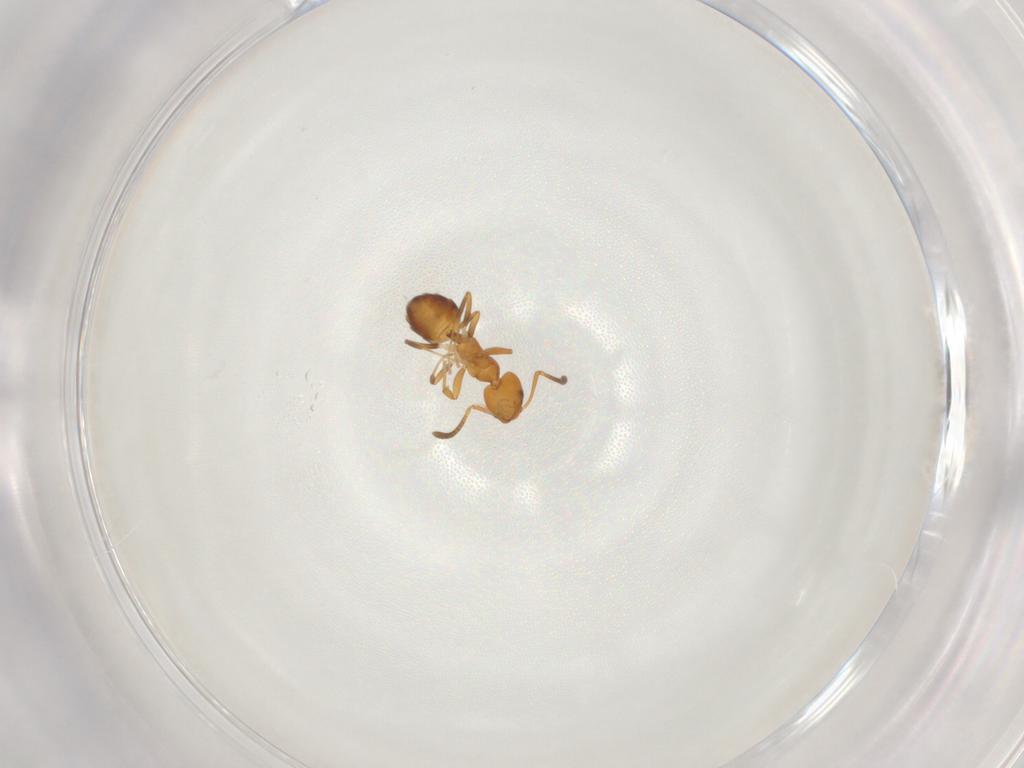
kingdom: Animalia
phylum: Arthropoda
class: Insecta
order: Hymenoptera
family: Formicidae
